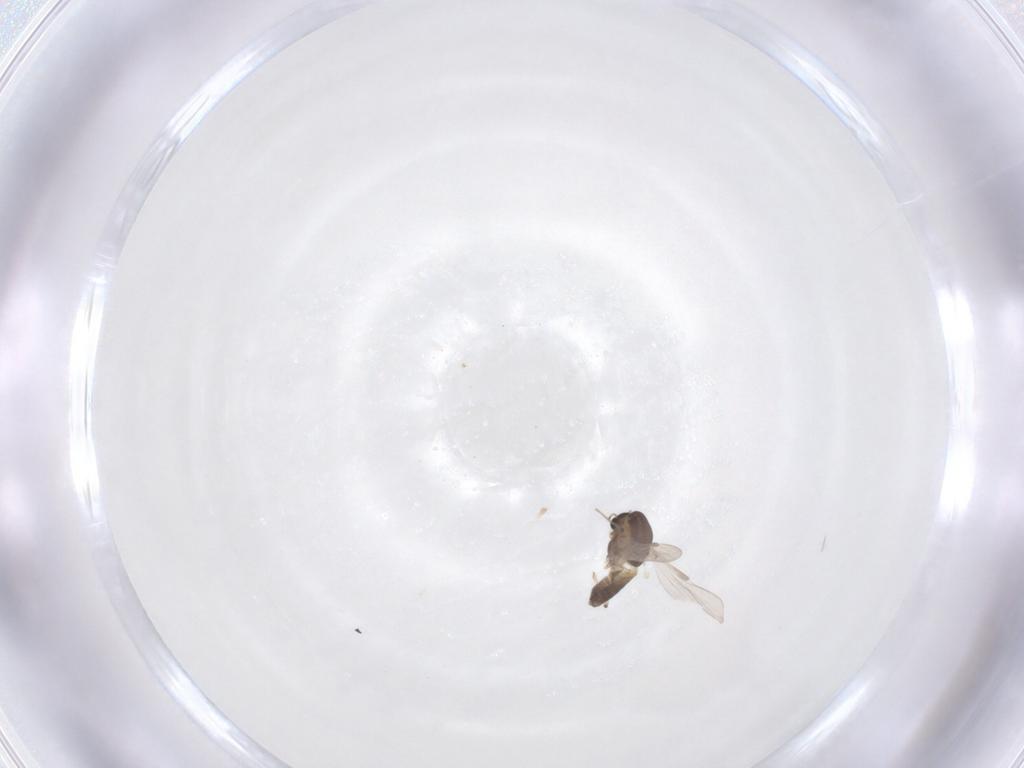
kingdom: Animalia
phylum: Arthropoda
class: Insecta
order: Diptera
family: Chironomidae
